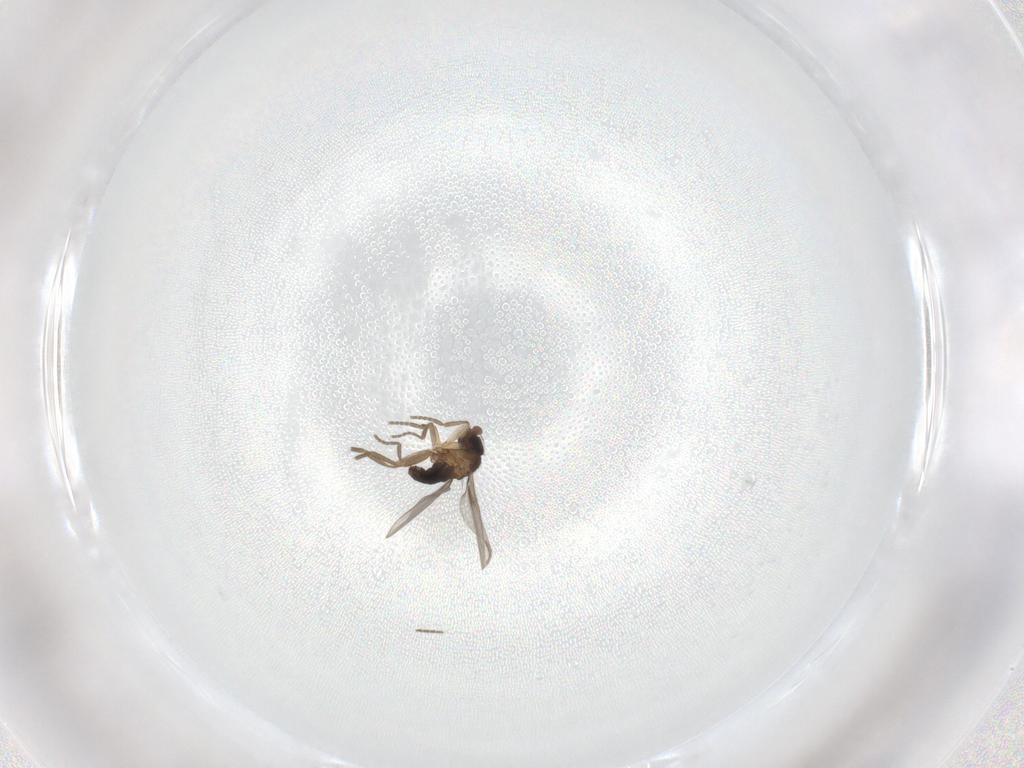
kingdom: Animalia
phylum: Arthropoda
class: Insecta
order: Diptera
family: Phoridae
